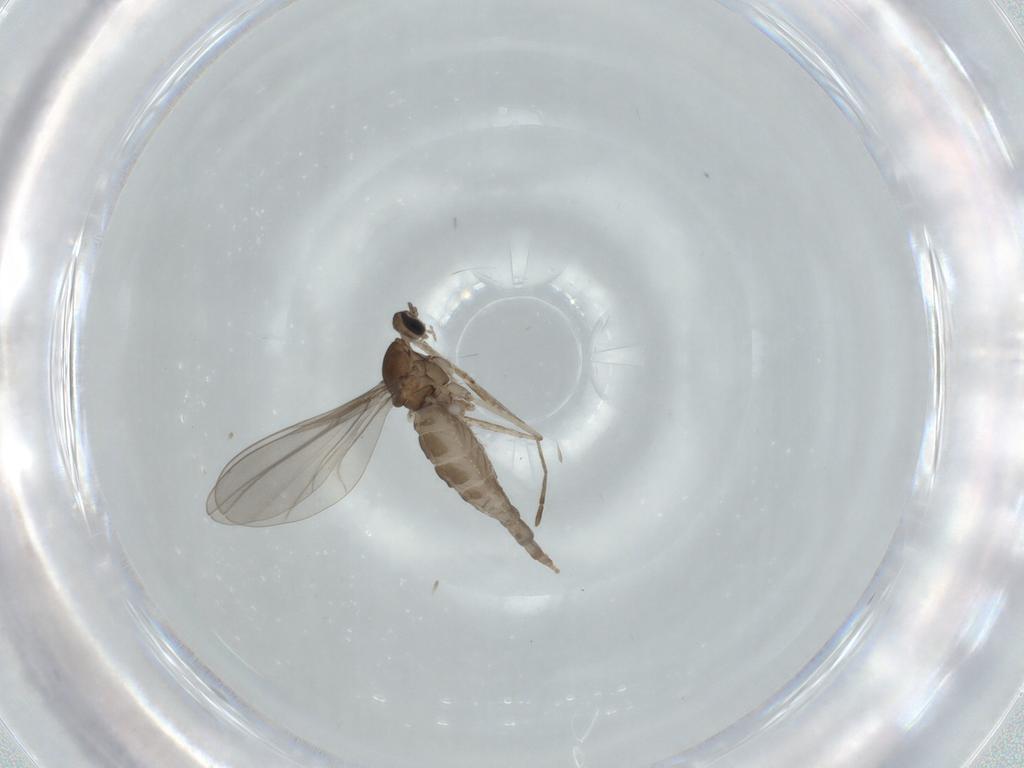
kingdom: Animalia
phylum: Arthropoda
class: Insecta
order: Diptera
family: Cecidomyiidae
